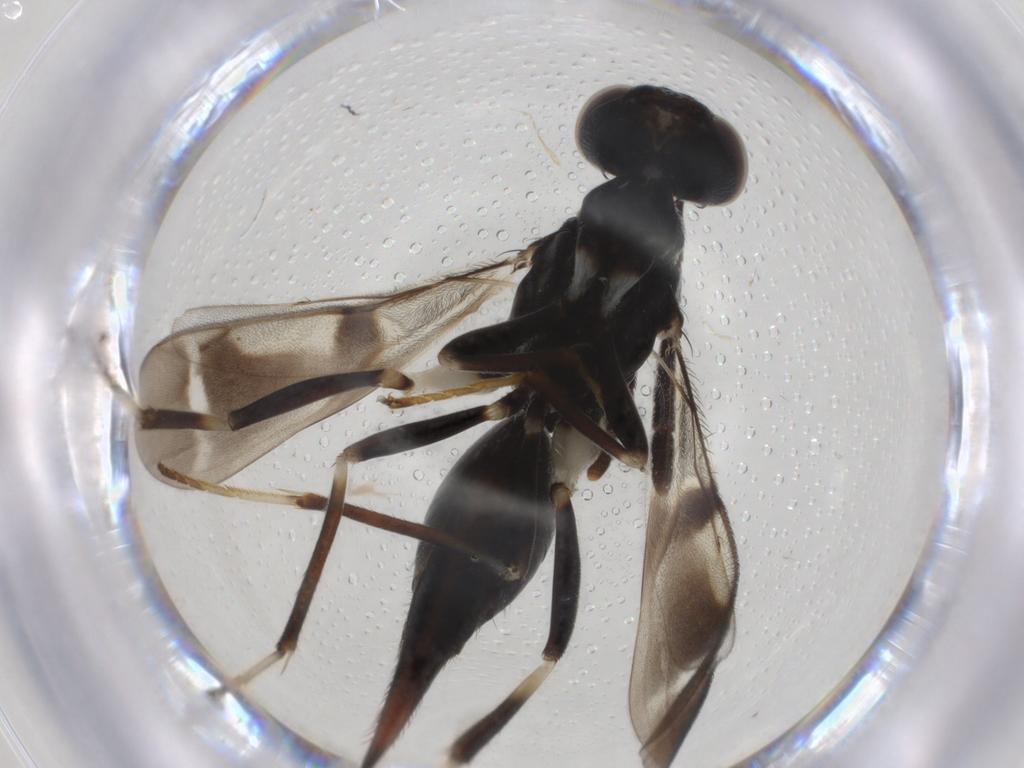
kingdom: Animalia
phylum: Arthropoda
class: Insecta
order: Hymenoptera
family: Diparidae
